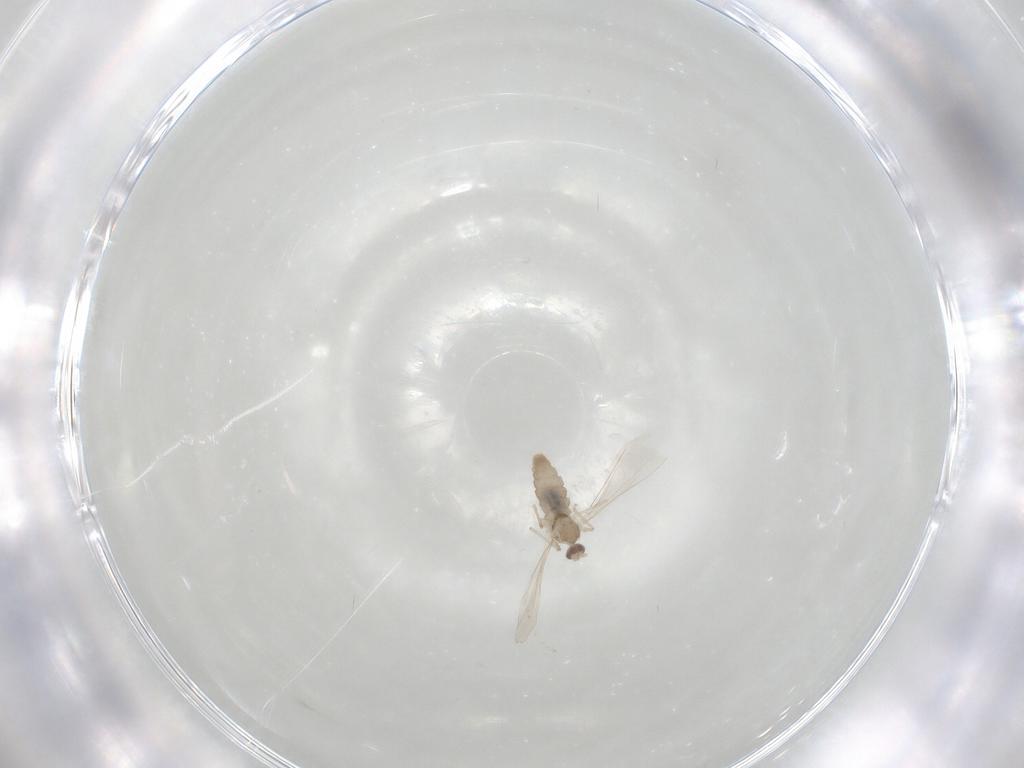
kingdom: Animalia
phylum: Arthropoda
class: Insecta
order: Diptera
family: Cecidomyiidae
